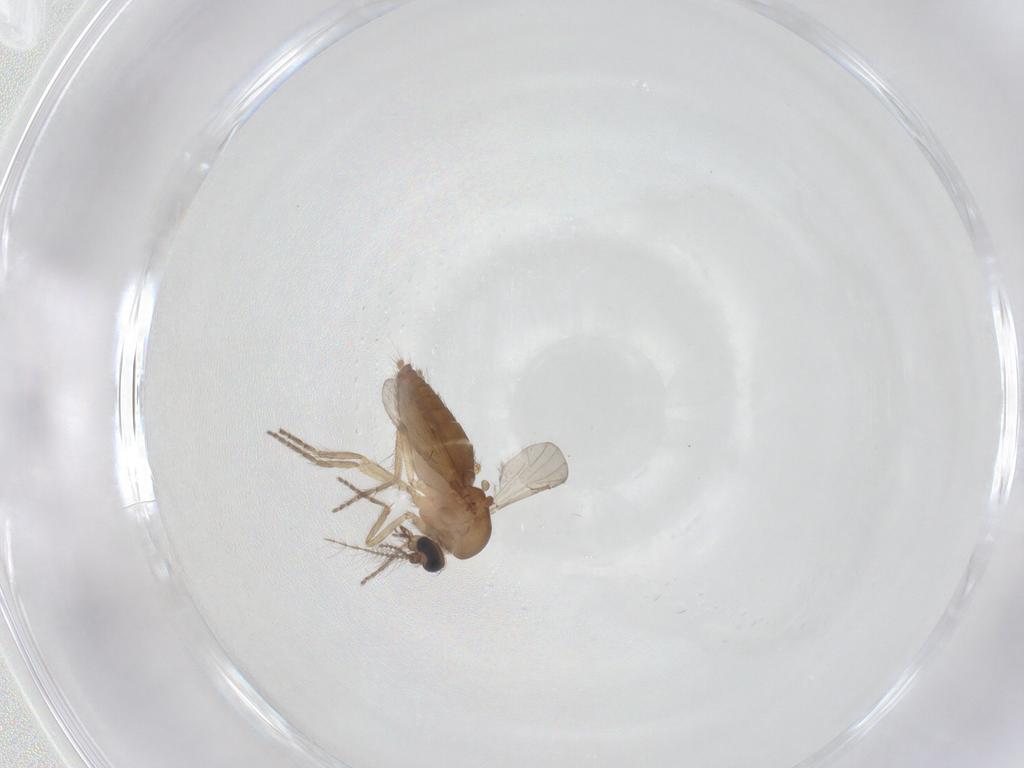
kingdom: Animalia
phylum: Arthropoda
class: Insecta
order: Diptera
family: Ceratopogonidae
